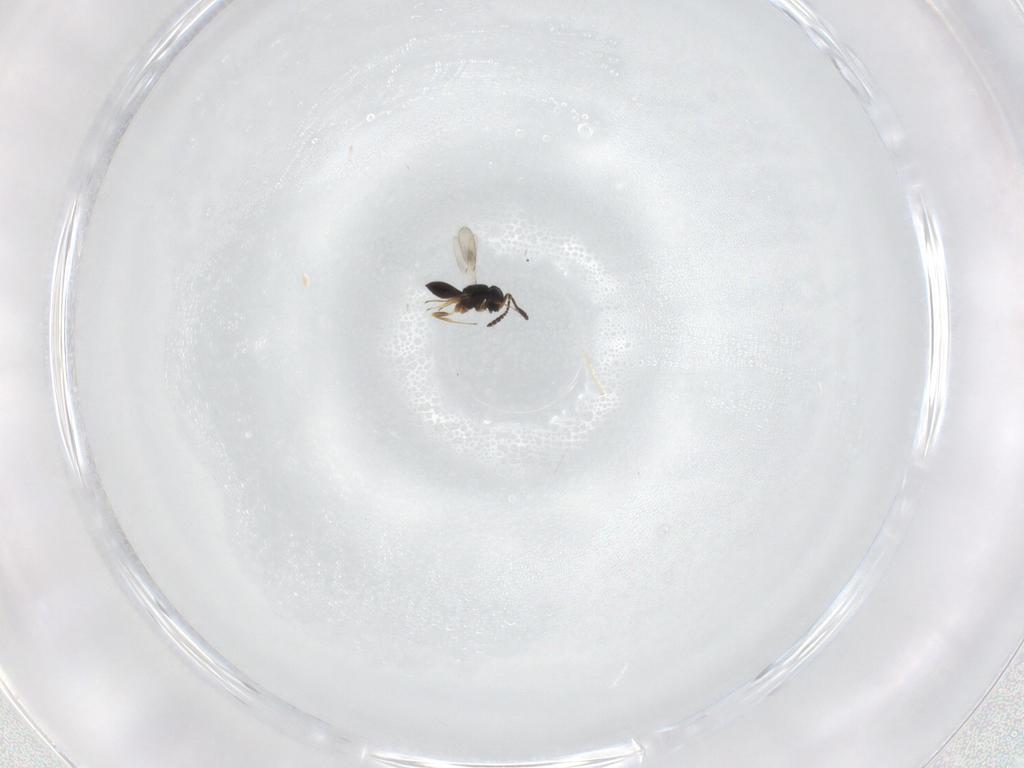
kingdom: Animalia
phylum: Arthropoda
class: Insecta
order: Hymenoptera
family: Scelionidae
